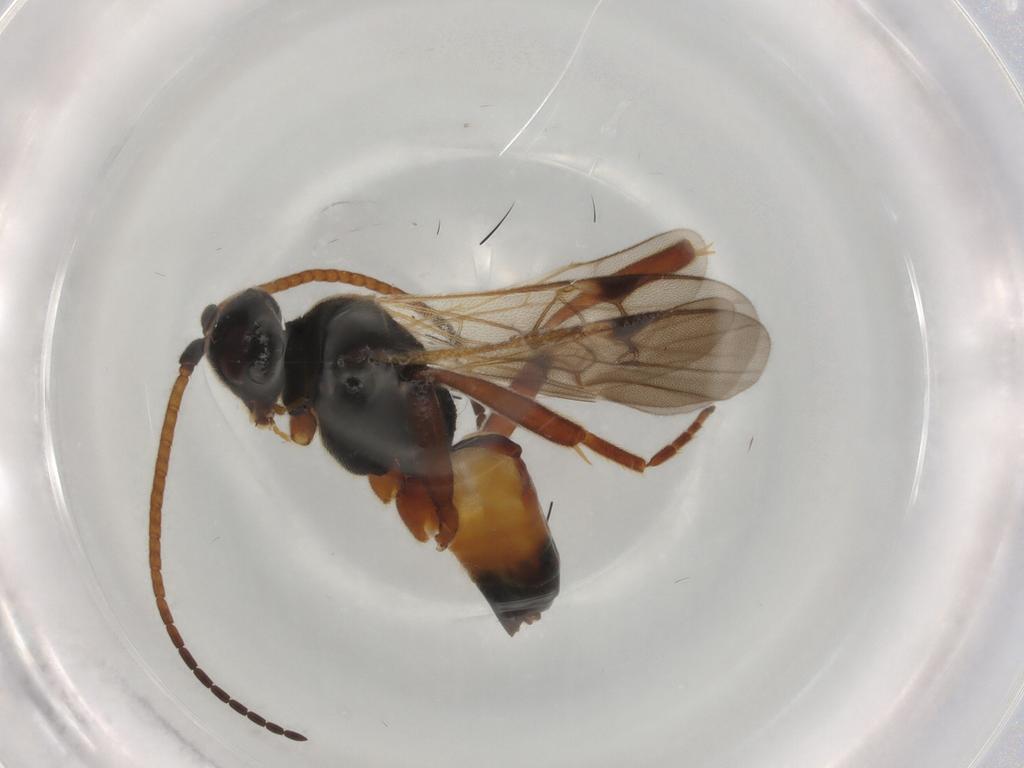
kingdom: Animalia
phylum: Arthropoda
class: Insecta
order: Hymenoptera
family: Braconidae
